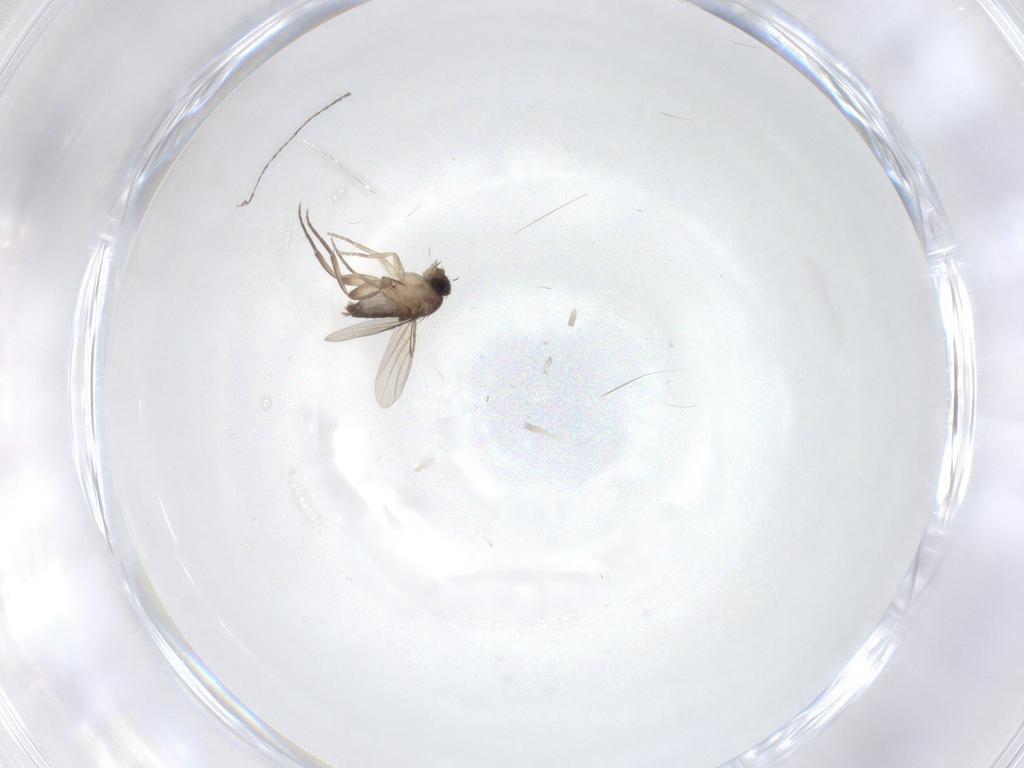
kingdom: Animalia
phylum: Arthropoda
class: Insecta
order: Diptera
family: Cecidomyiidae
